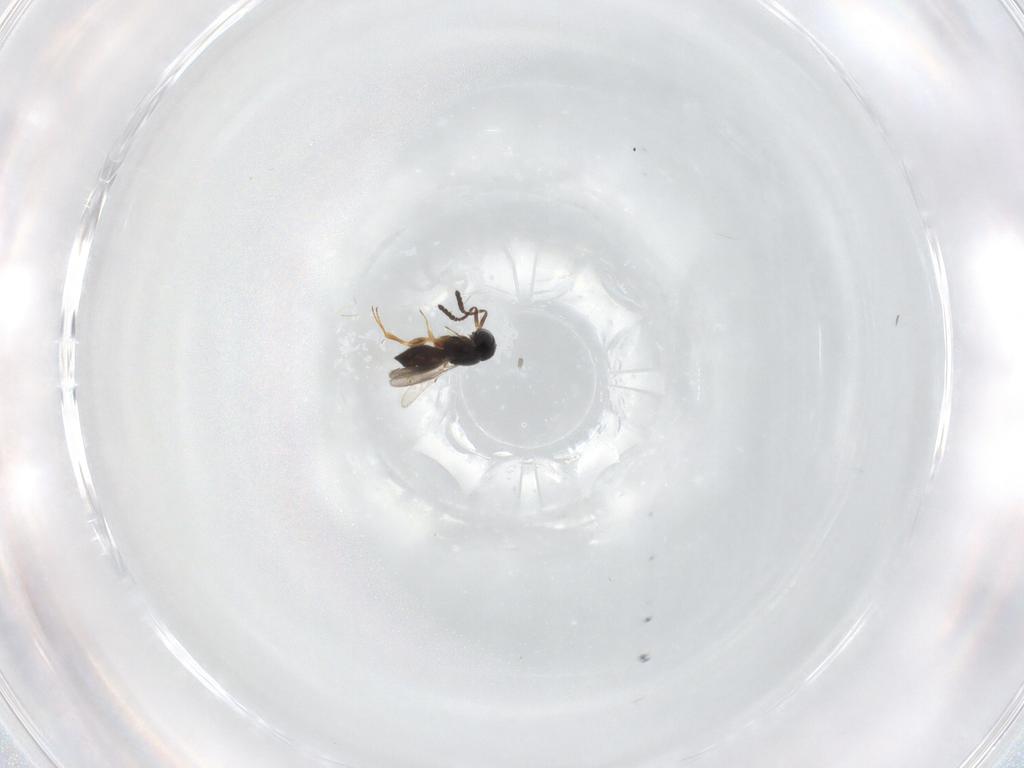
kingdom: Animalia
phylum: Arthropoda
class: Insecta
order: Hymenoptera
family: Scelionidae
